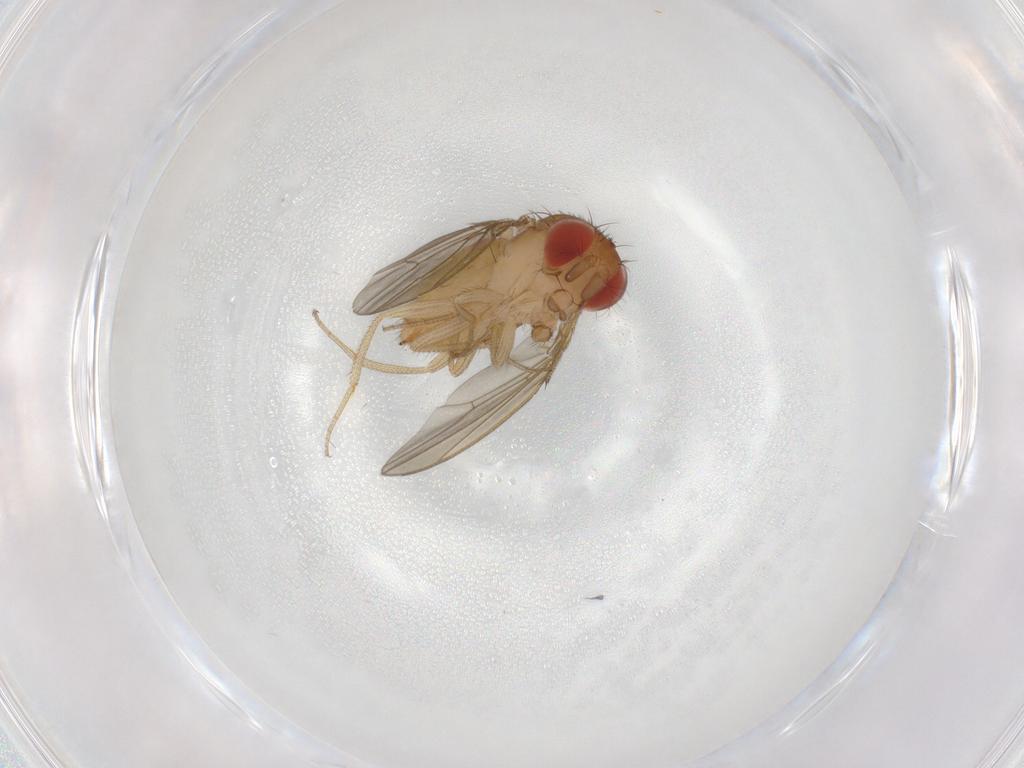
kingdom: Animalia
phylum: Arthropoda
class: Insecta
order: Diptera
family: Drosophilidae
